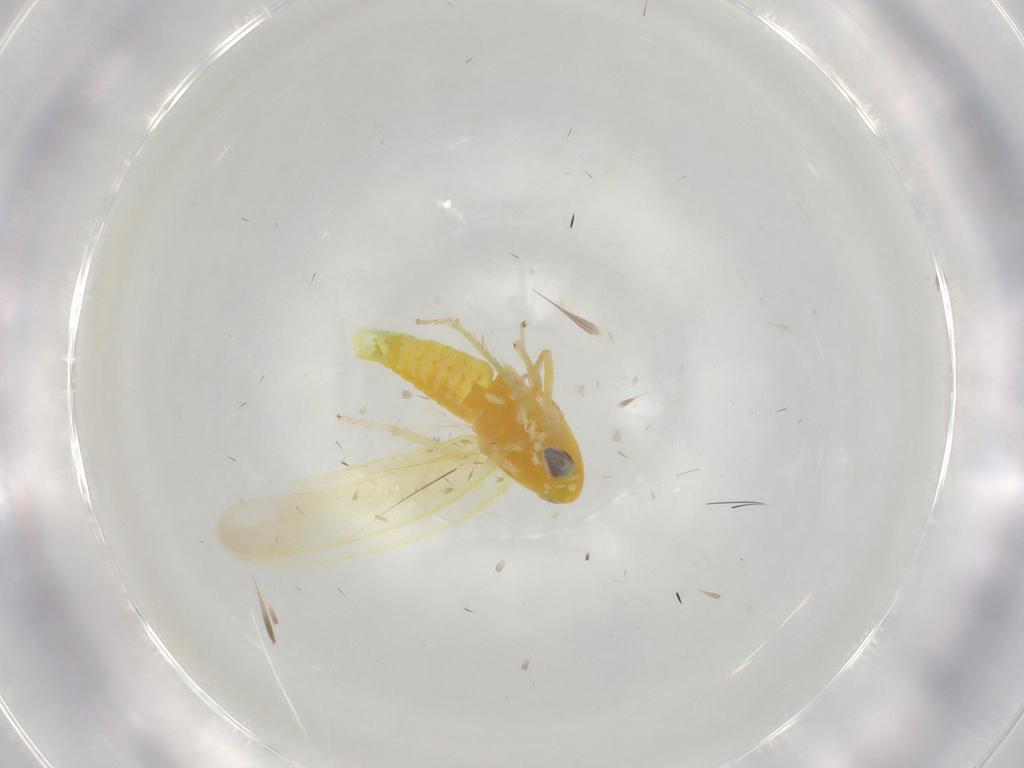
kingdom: Animalia
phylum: Arthropoda
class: Insecta
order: Hemiptera
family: Cicadellidae
